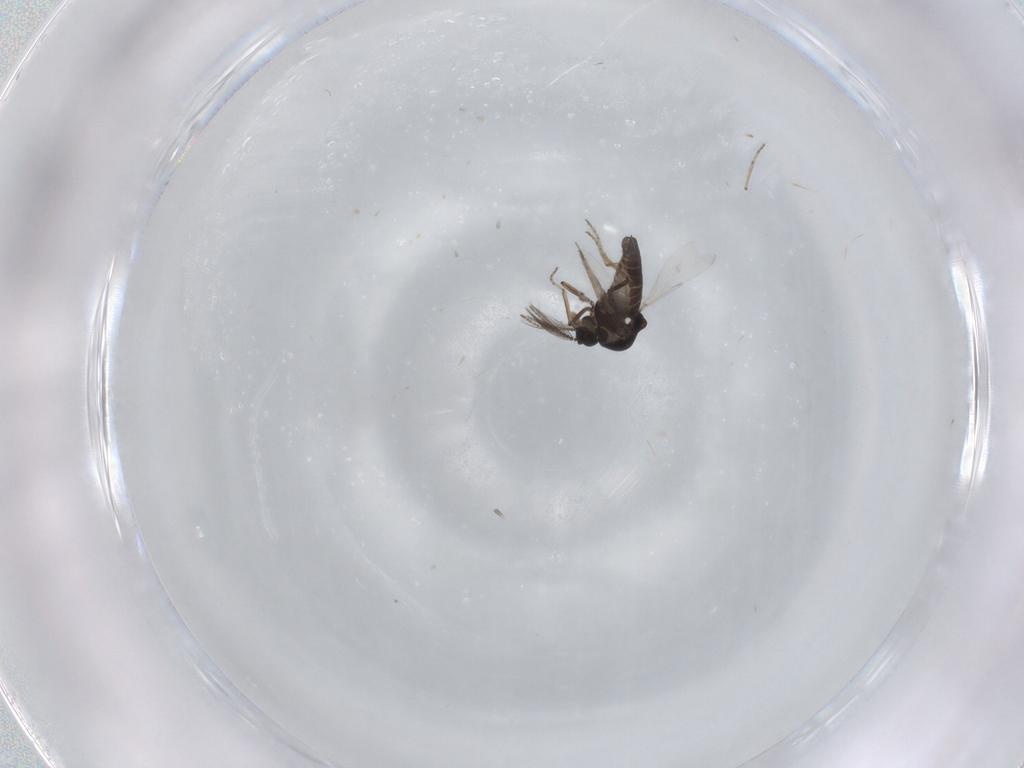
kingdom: Animalia
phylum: Arthropoda
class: Insecta
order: Diptera
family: Ceratopogonidae
